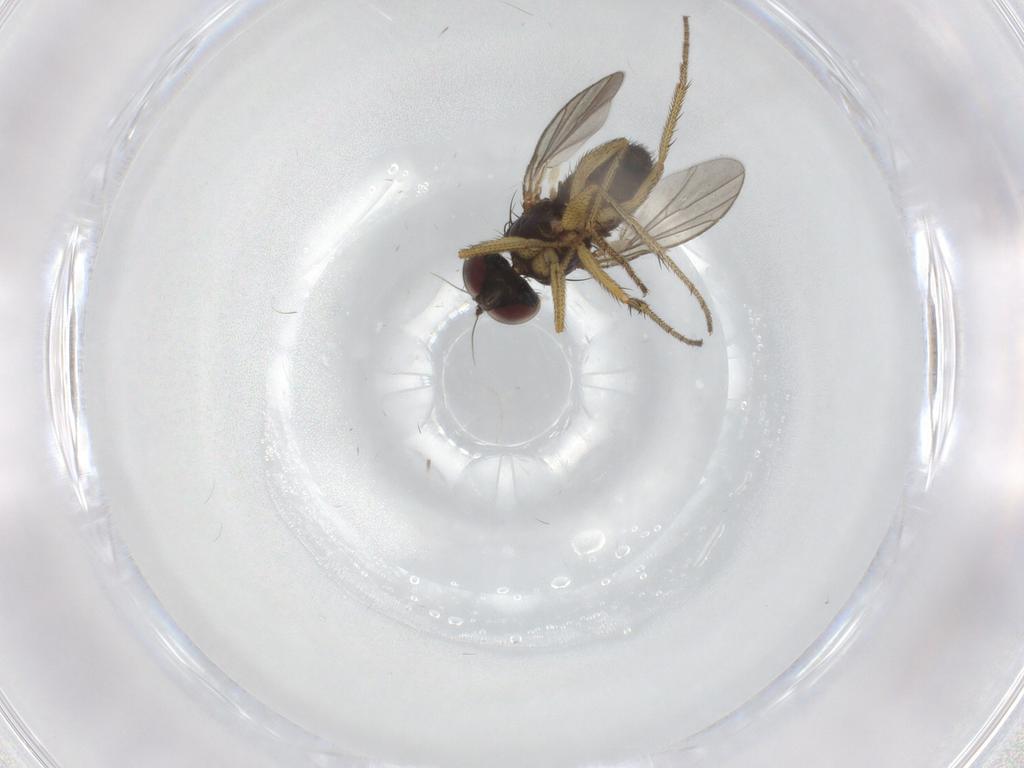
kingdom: Animalia
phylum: Arthropoda
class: Insecta
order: Diptera
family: Dolichopodidae
